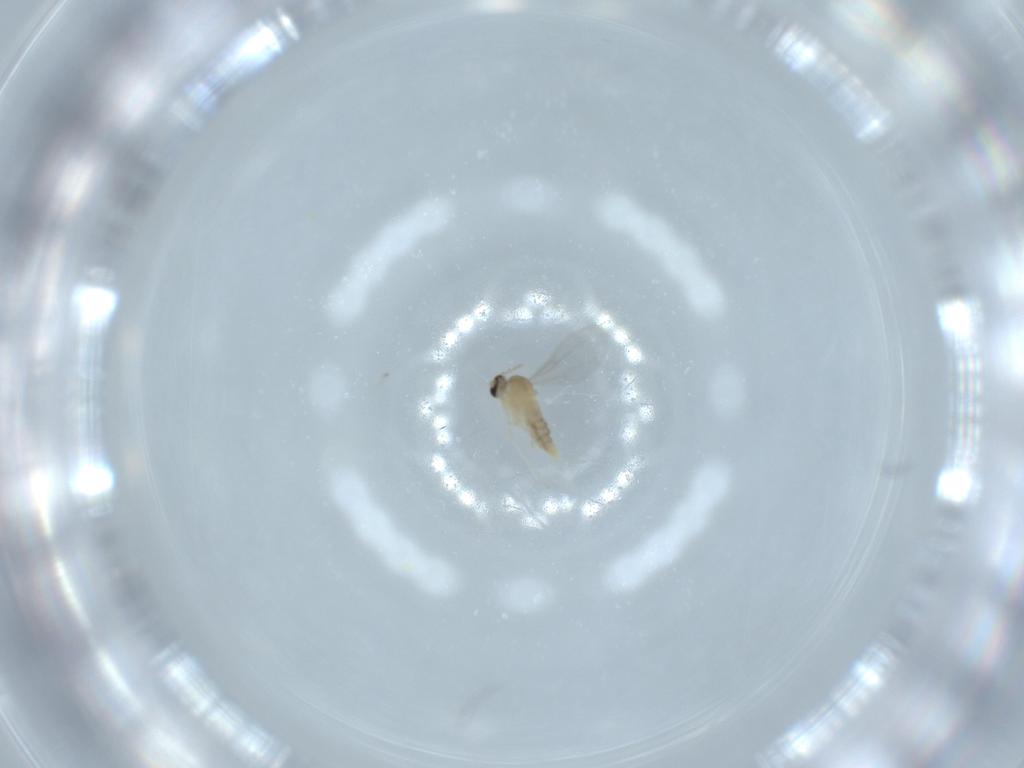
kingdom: Animalia
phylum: Arthropoda
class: Insecta
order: Diptera
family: Cecidomyiidae
